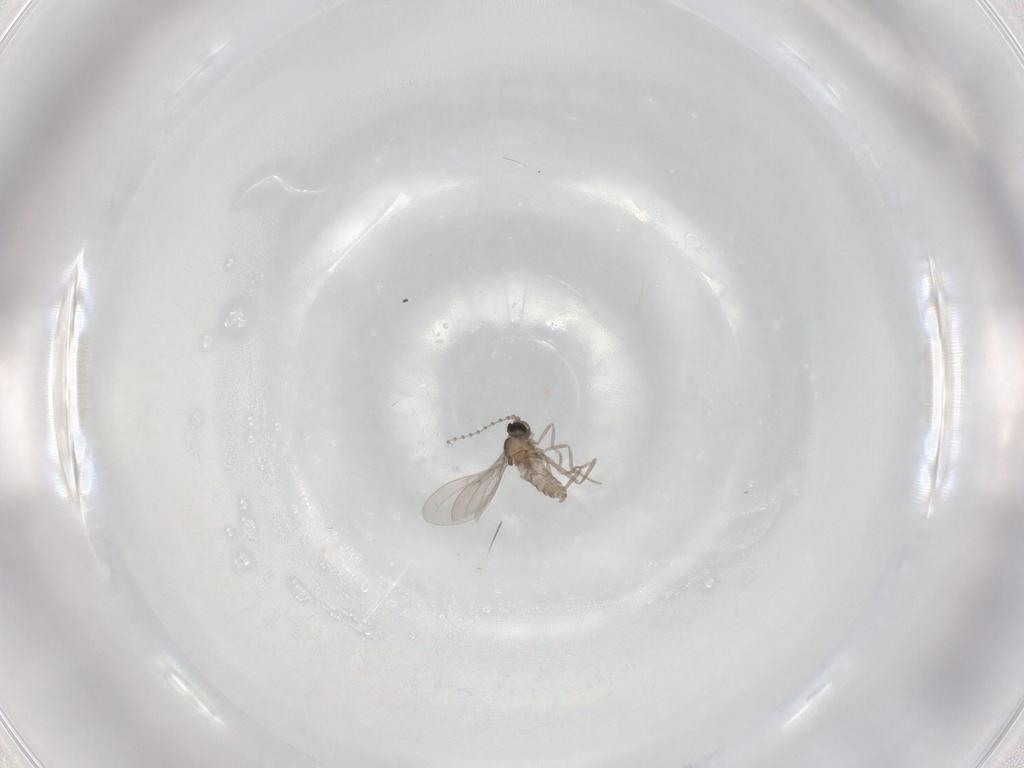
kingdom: Animalia
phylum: Arthropoda
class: Insecta
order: Diptera
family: Cecidomyiidae
